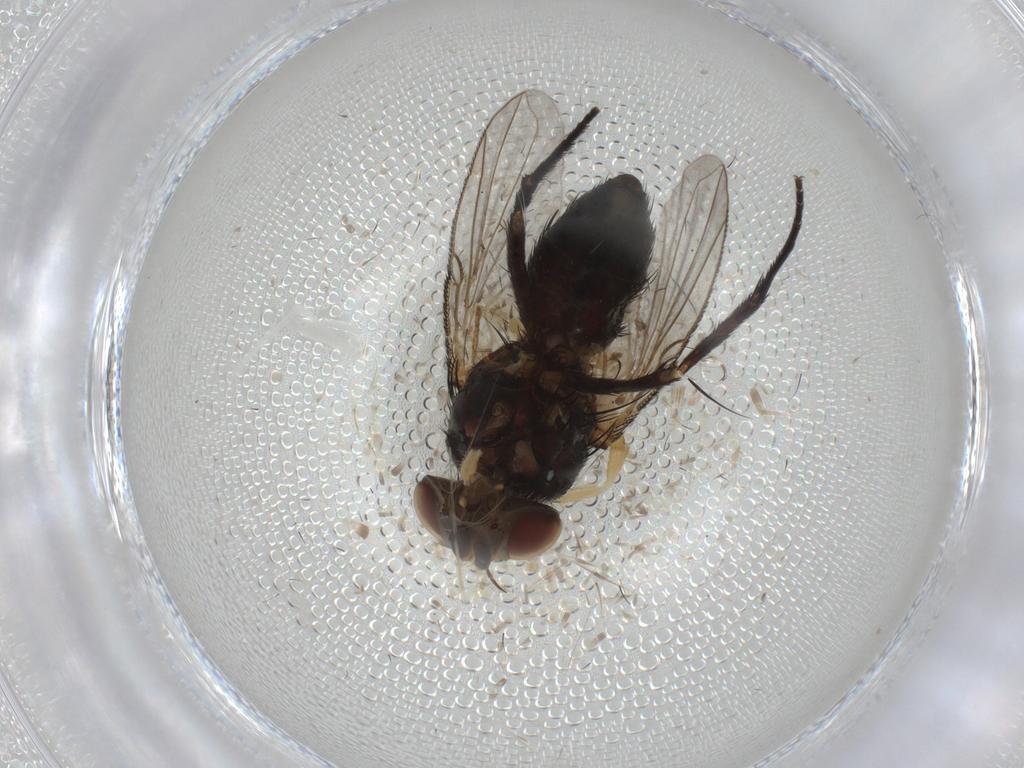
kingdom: Animalia
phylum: Arthropoda
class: Insecta
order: Diptera
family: Tachinidae
